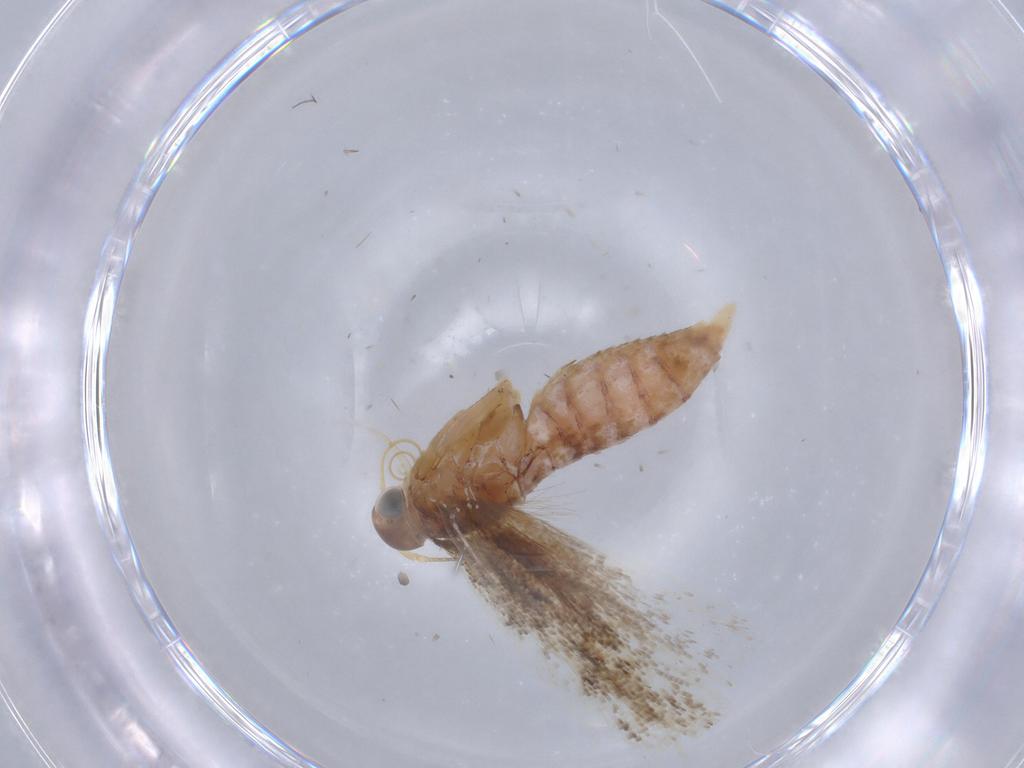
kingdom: Animalia
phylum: Arthropoda
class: Insecta
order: Lepidoptera
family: Gelechiidae
